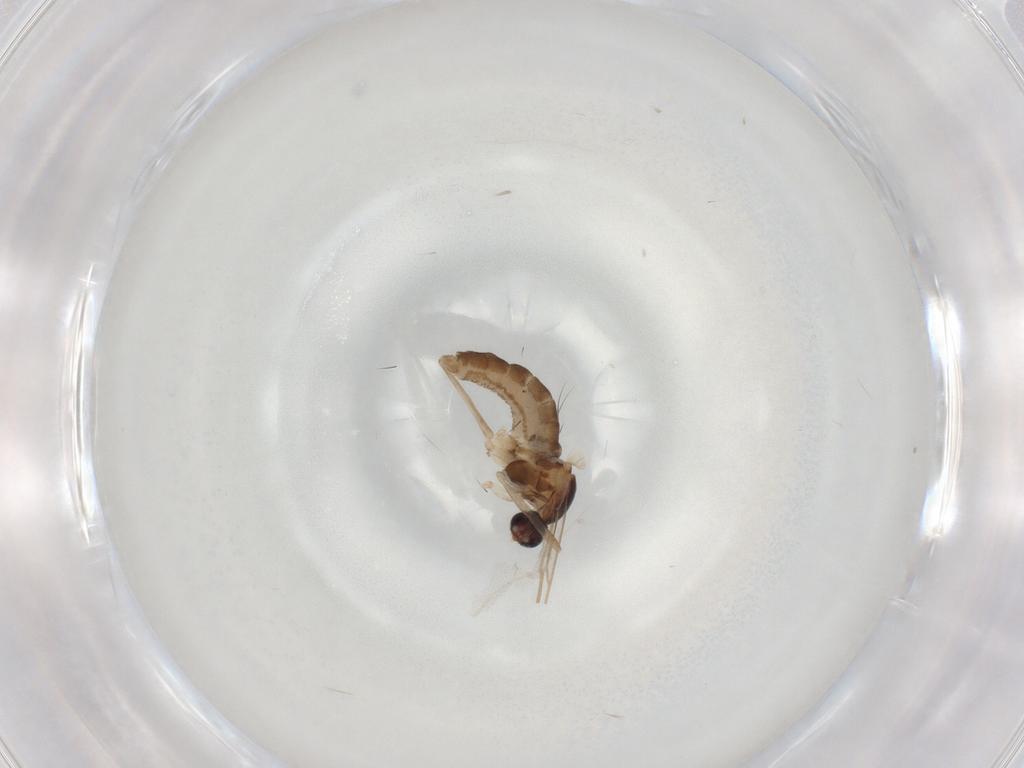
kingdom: Animalia
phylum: Arthropoda
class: Insecta
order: Diptera
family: Cecidomyiidae
